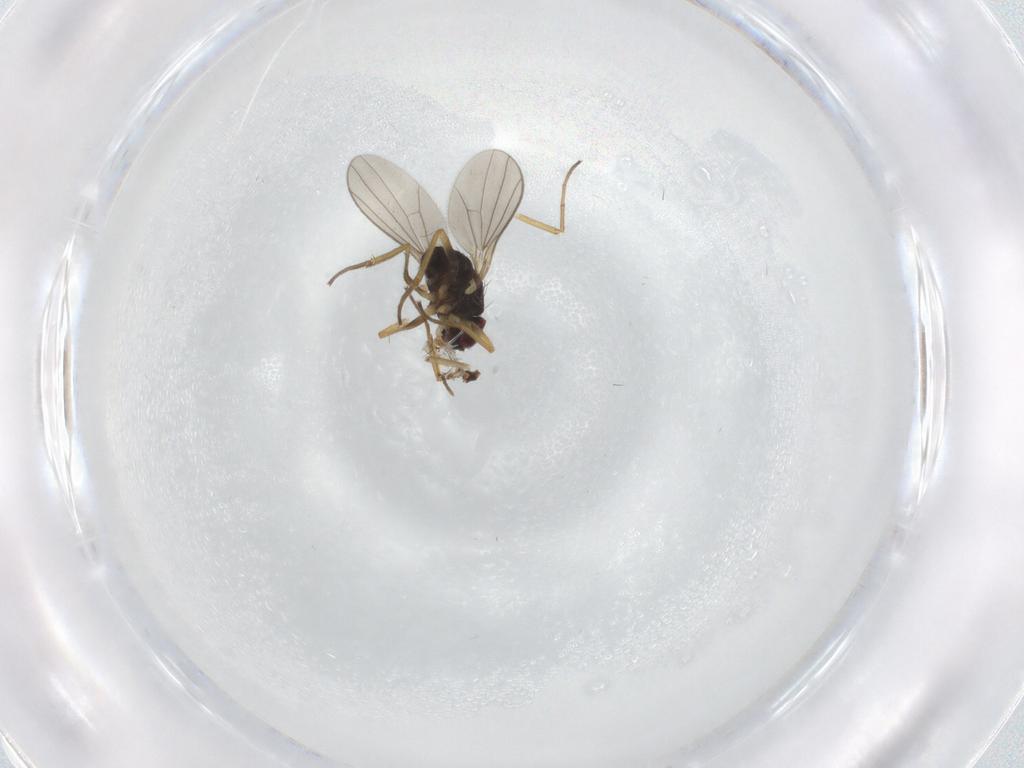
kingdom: Animalia
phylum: Arthropoda
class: Insecta
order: Diptera
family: Dolichopodidae
